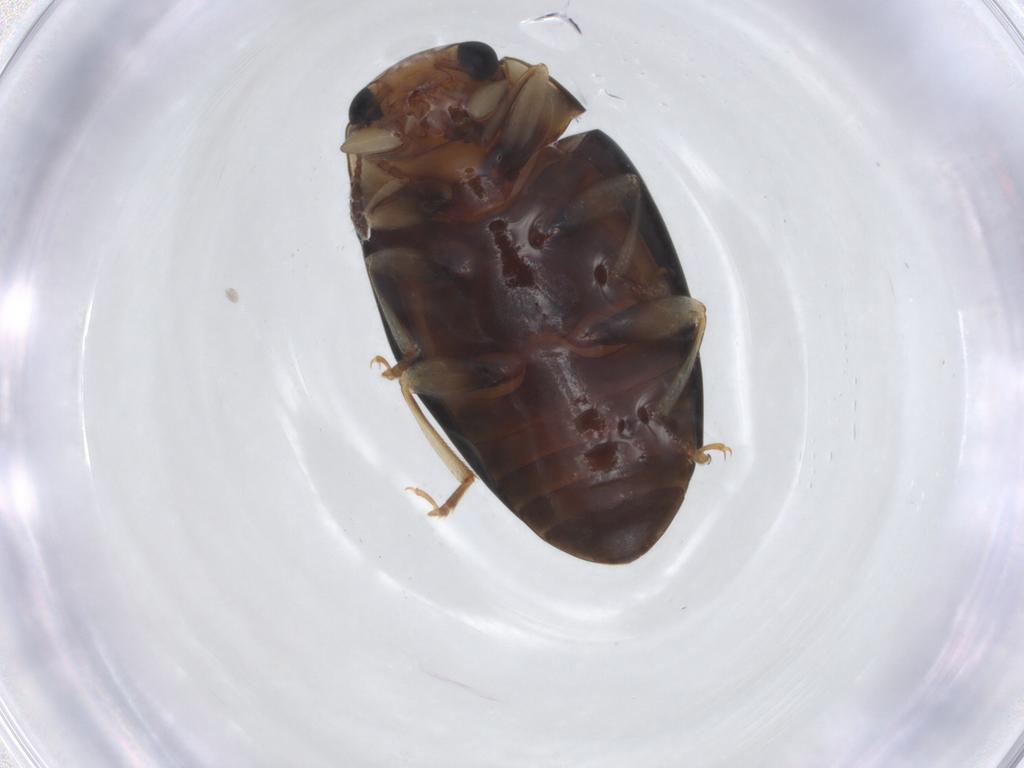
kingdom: Animalia
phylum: Arthropoda
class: Insecta
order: Coleoptera
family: Erotylidae
